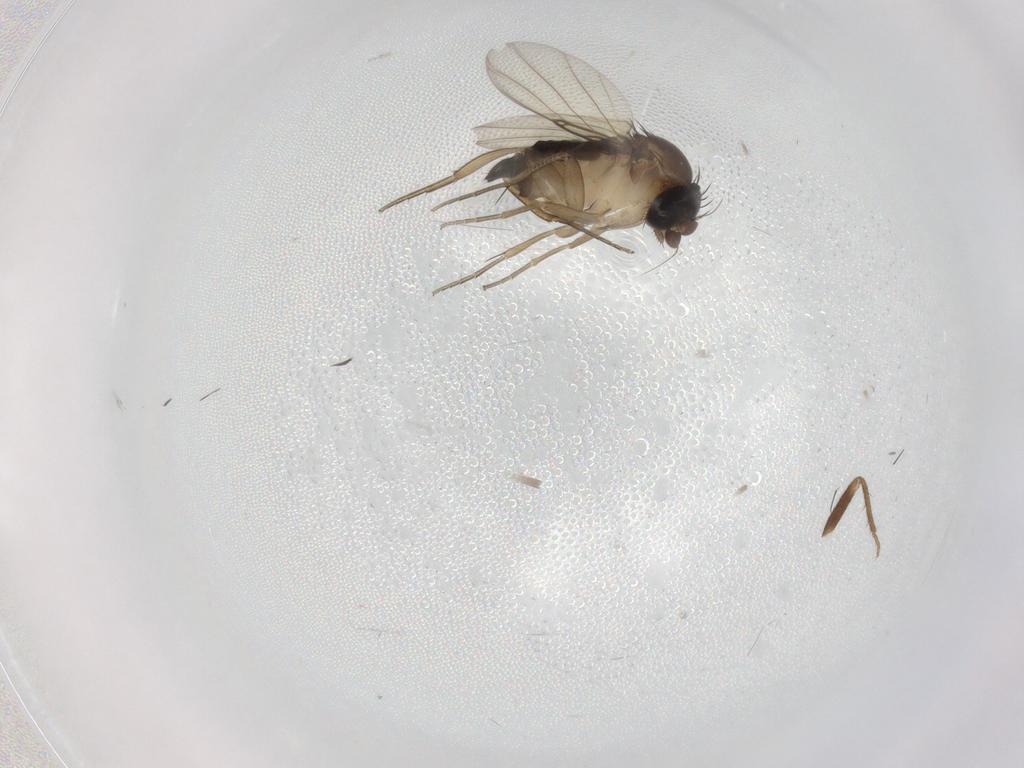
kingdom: Animalia
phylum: Arthropoda
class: Insecta
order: Diptera
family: Phoridae
